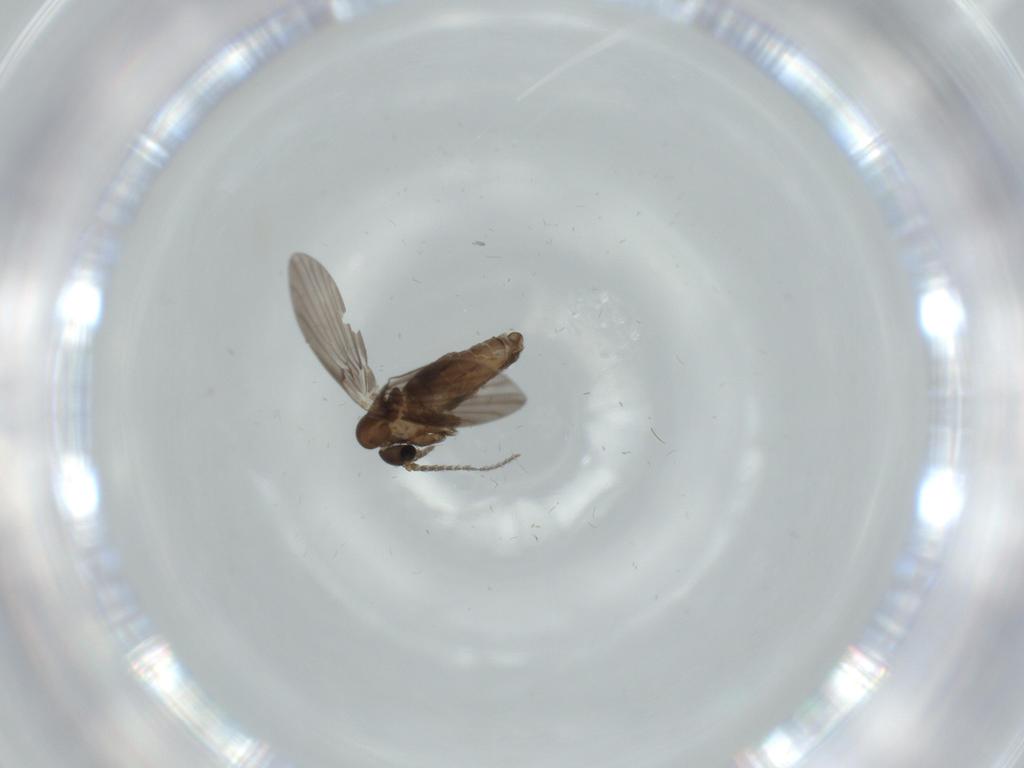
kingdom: Animalia
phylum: Arthropoda
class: Insecta
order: Diptera
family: Psychodidae
